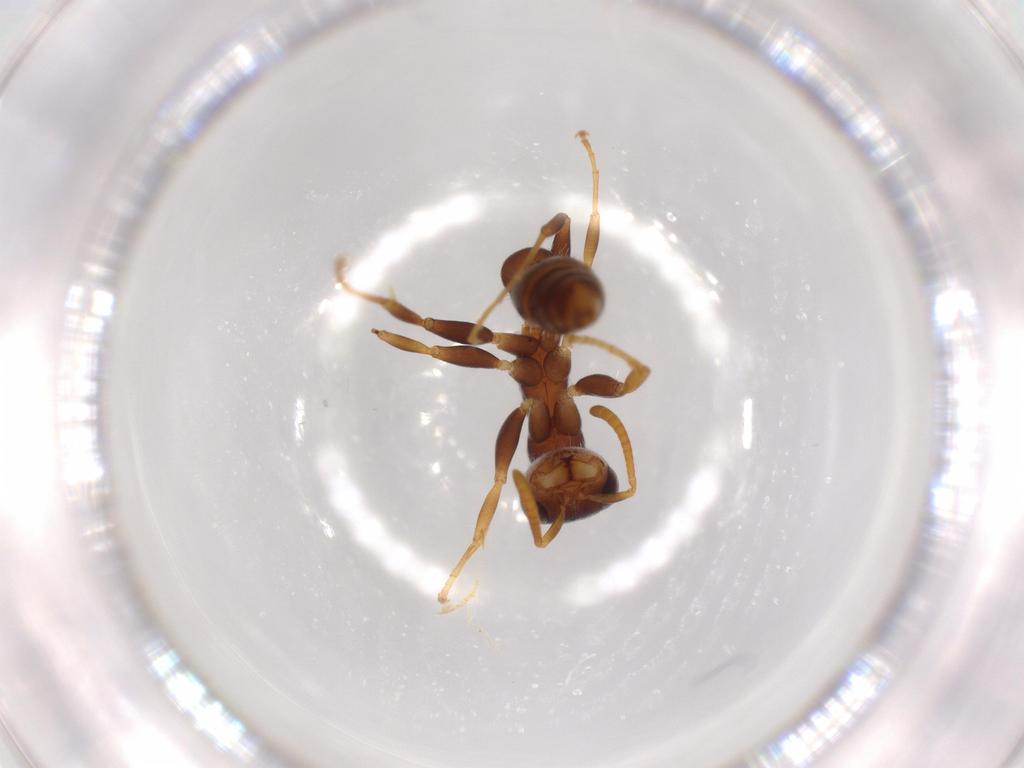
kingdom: Animalia
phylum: Arthropoda
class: Insecta
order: Hymenoptera
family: Formicidae
